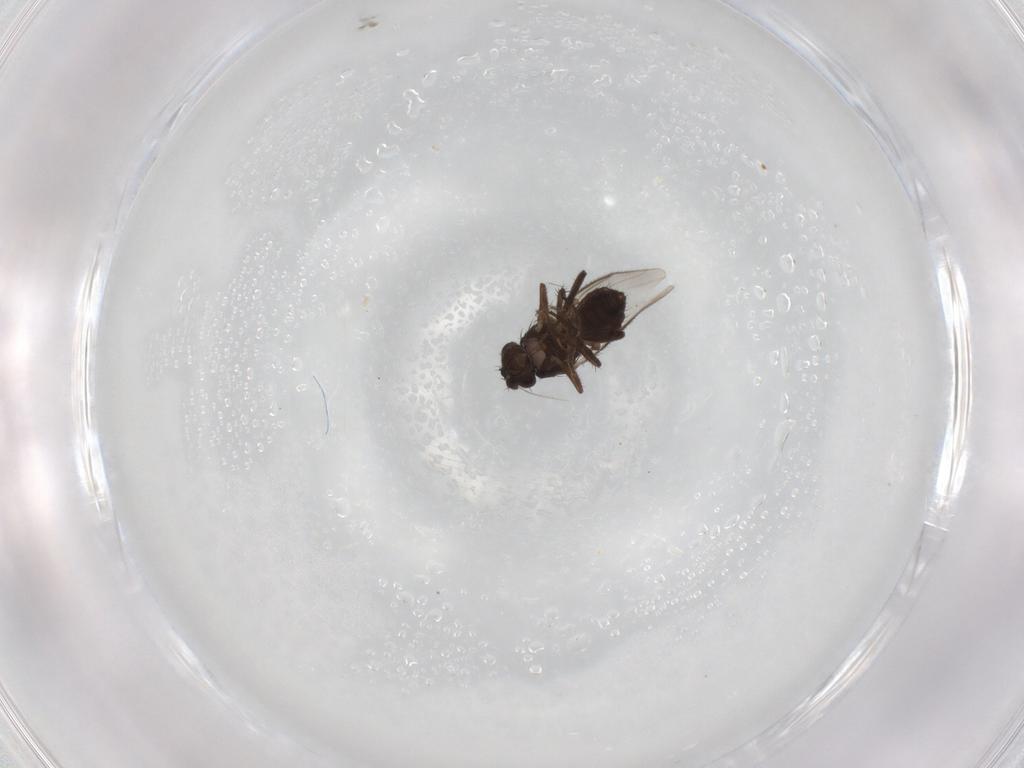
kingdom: Animalia
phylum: Arthropoda
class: Insecta
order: Diptera
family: Sphaeroceridae
